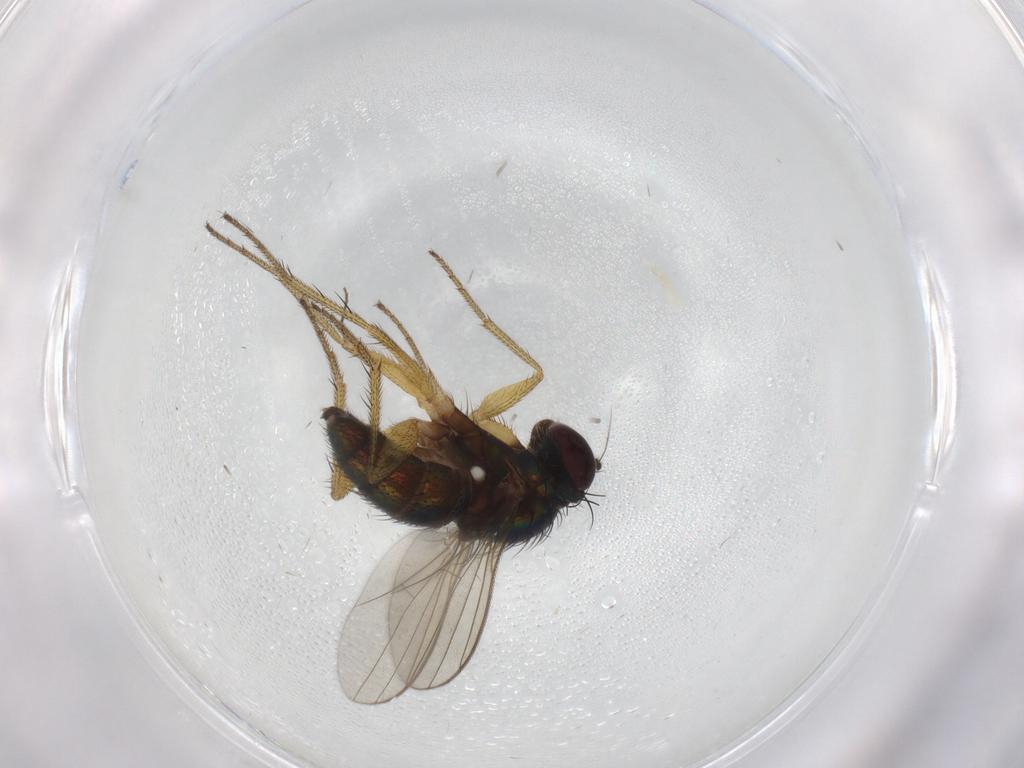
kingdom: Animalia
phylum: Arthropoda
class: Insecta
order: Diptera
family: Chironomidae
